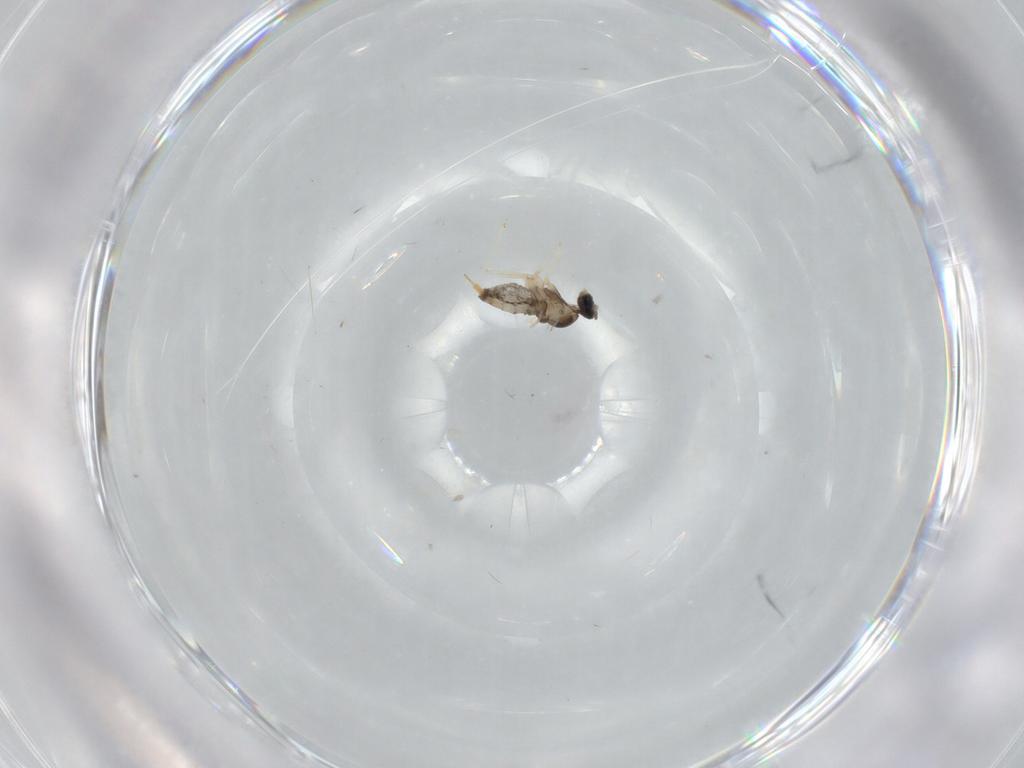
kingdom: Animalia
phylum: Arthropoda
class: Insecta
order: Diptera
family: Cecidomyiidae
